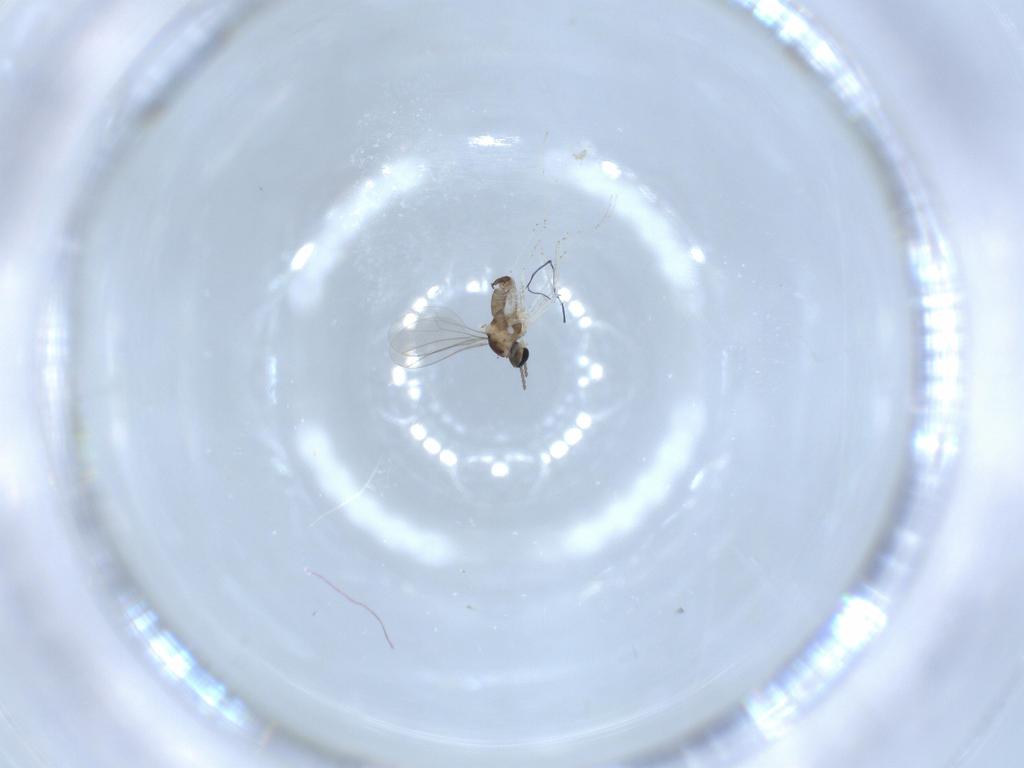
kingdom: Animalia
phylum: Arthropoda
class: Insecta
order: Diptera
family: Cecidomyiidae
